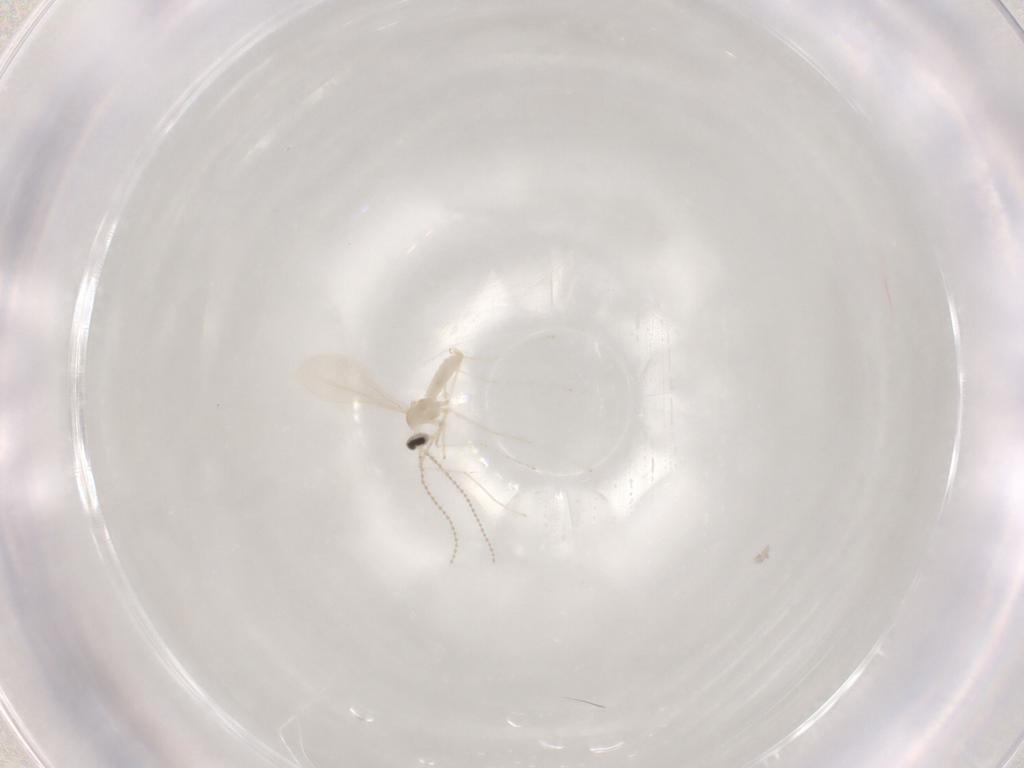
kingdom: Animalia
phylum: Arthropoda
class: Insecta
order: Diptera
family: Cecidomyiidae
